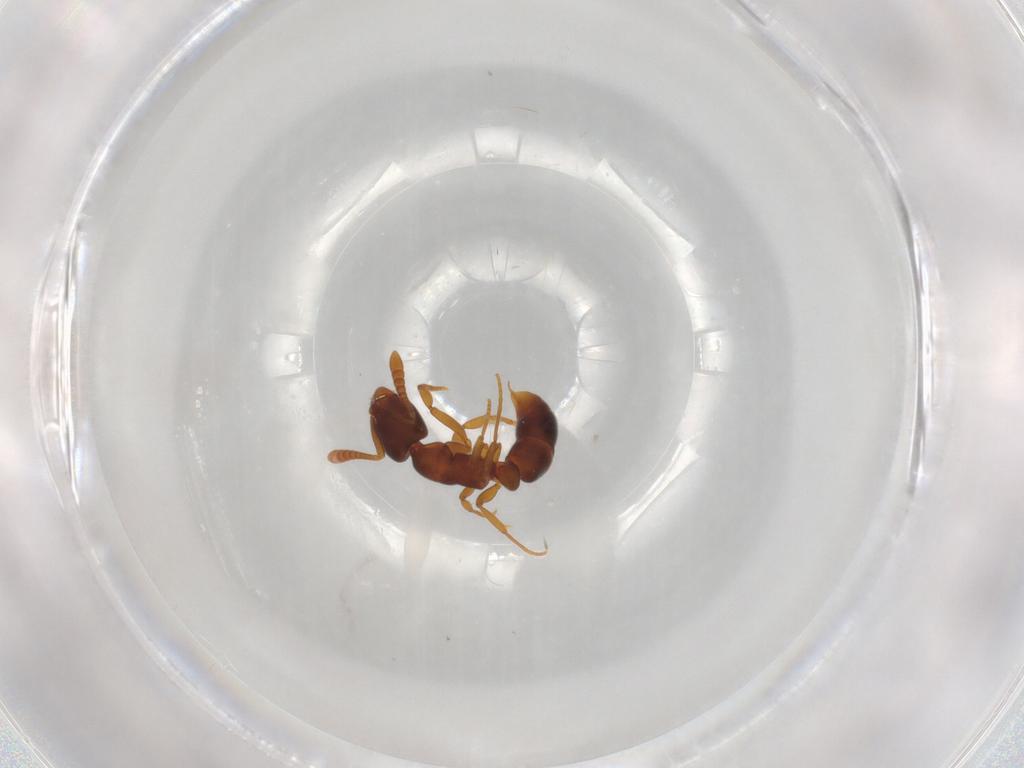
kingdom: Animalia
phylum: Arthropoda
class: Insecta
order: Hymenoptera
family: Formicidae
